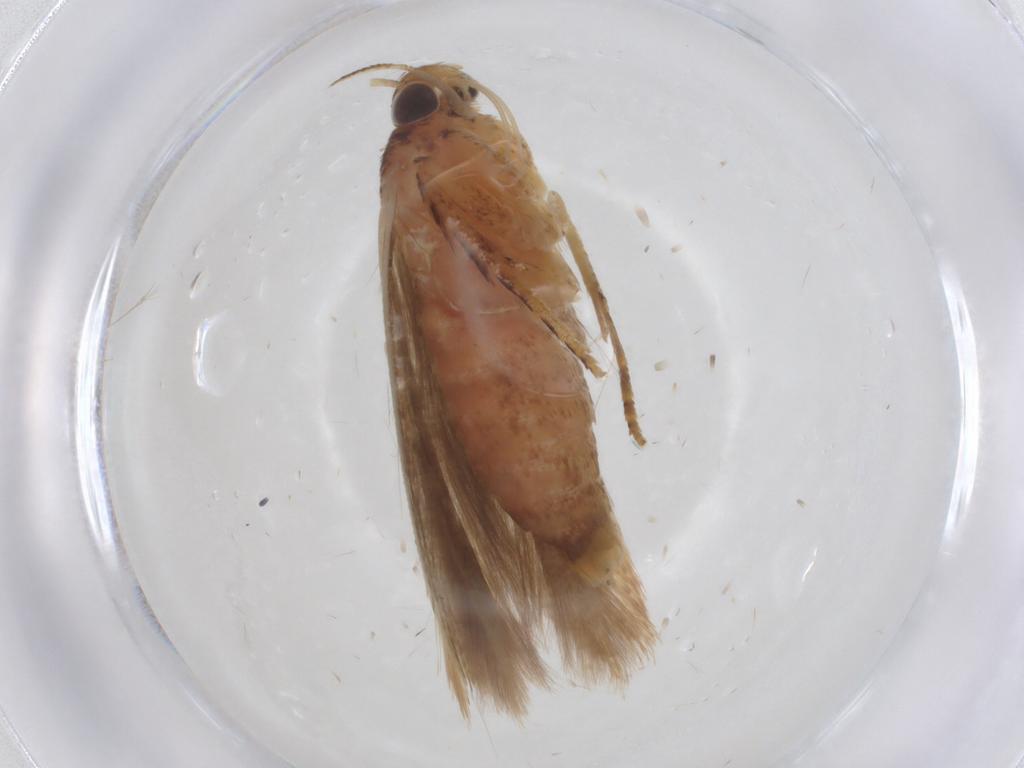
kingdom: Animalia
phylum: Arthropoda
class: Insecta
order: Lepidoptera
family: Gelechiidae
